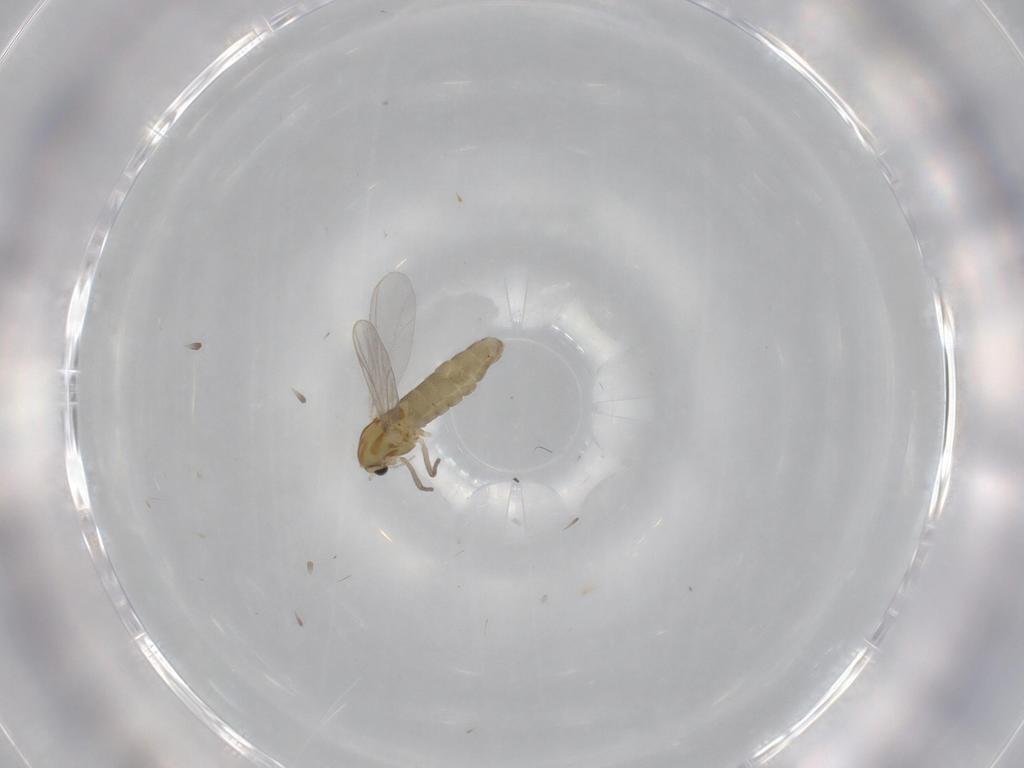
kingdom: Animalia
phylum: Arthropoda
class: Insecta
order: Diptera
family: Chironomidae
